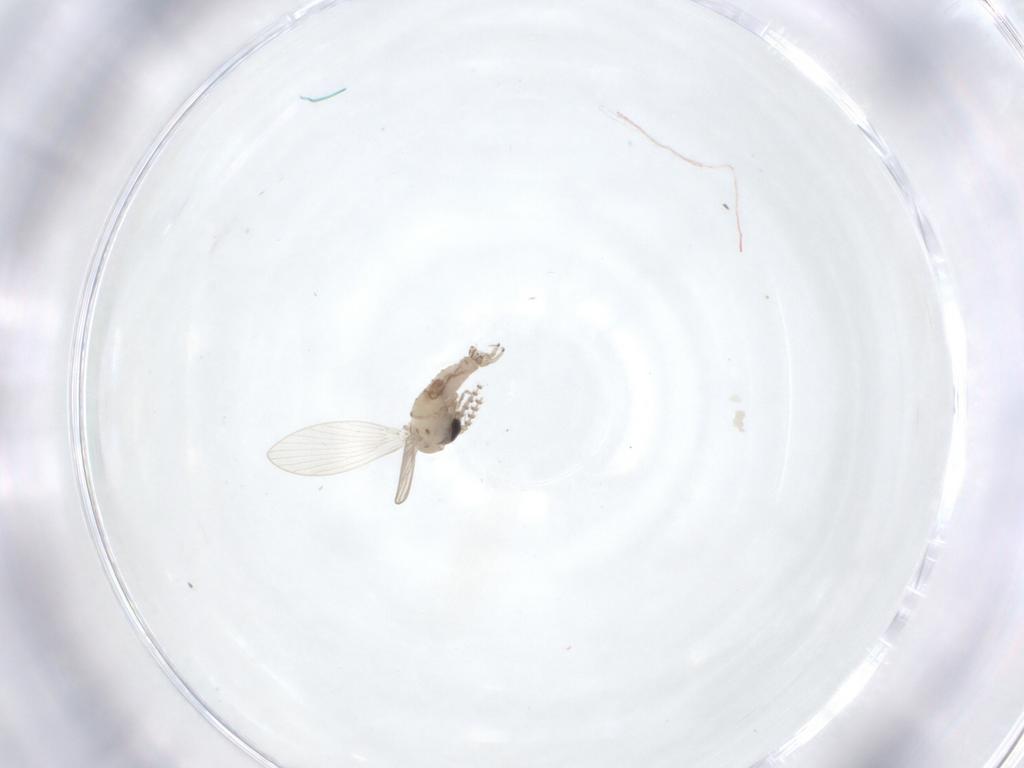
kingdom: Animalia
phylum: Arthropoda
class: Insecta
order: Diptera
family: Psychodidae
